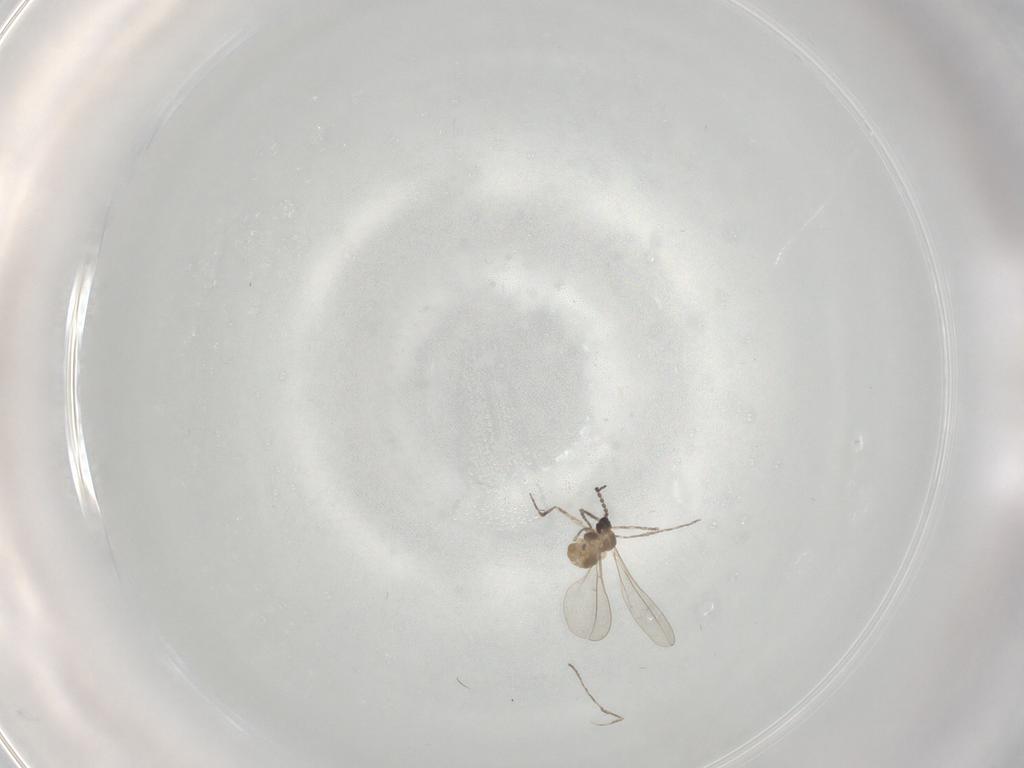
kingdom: Animalia
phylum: Arthropoda
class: Insecta
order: Diptera
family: Cecidomyiidae
